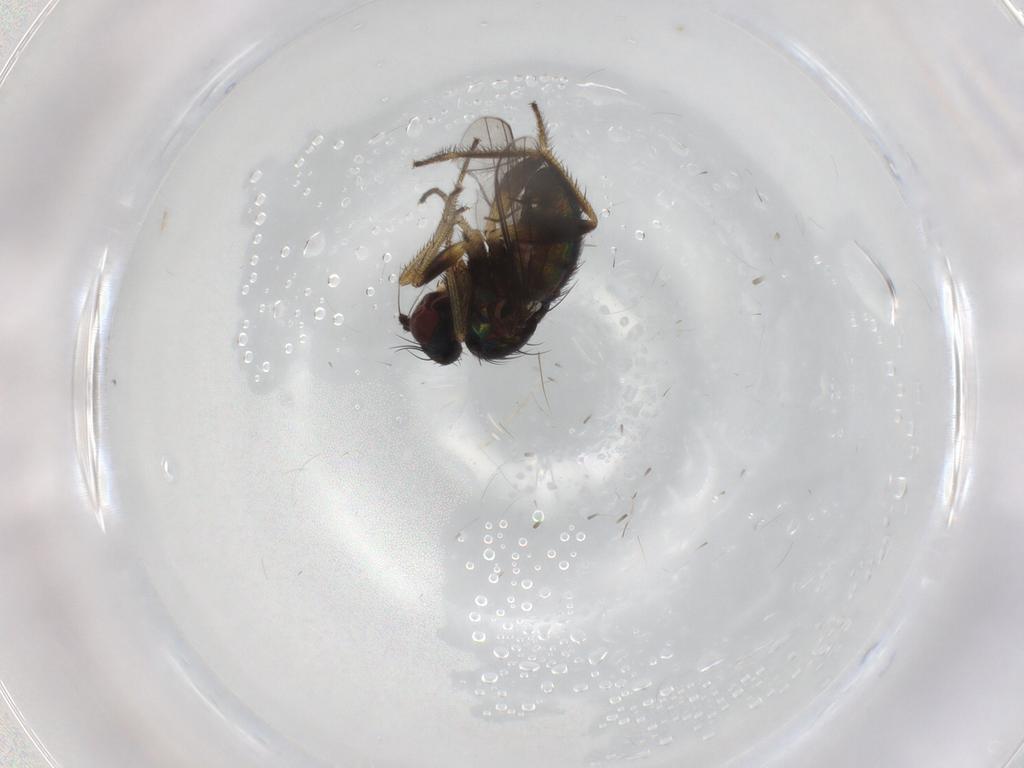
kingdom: Animalia
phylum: Arthropoda
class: Insecta
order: Diptera
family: Dolichopodidae
